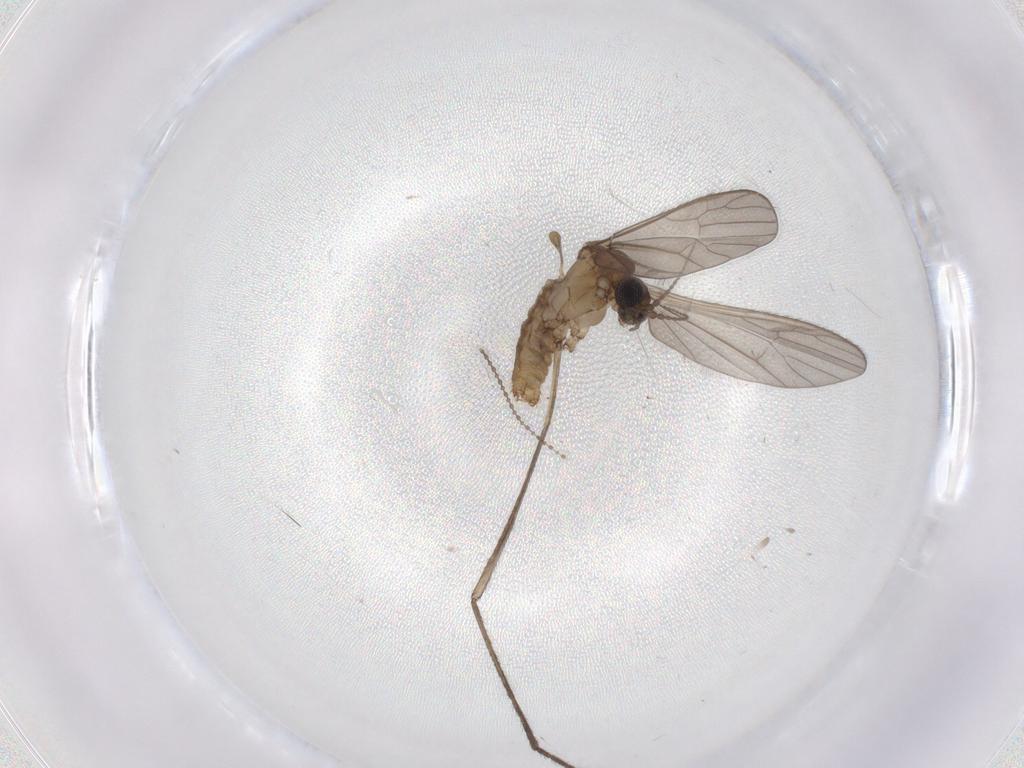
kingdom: Animalia
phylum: Arthropoda
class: Insecta
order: Diptera
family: Chironomidae
